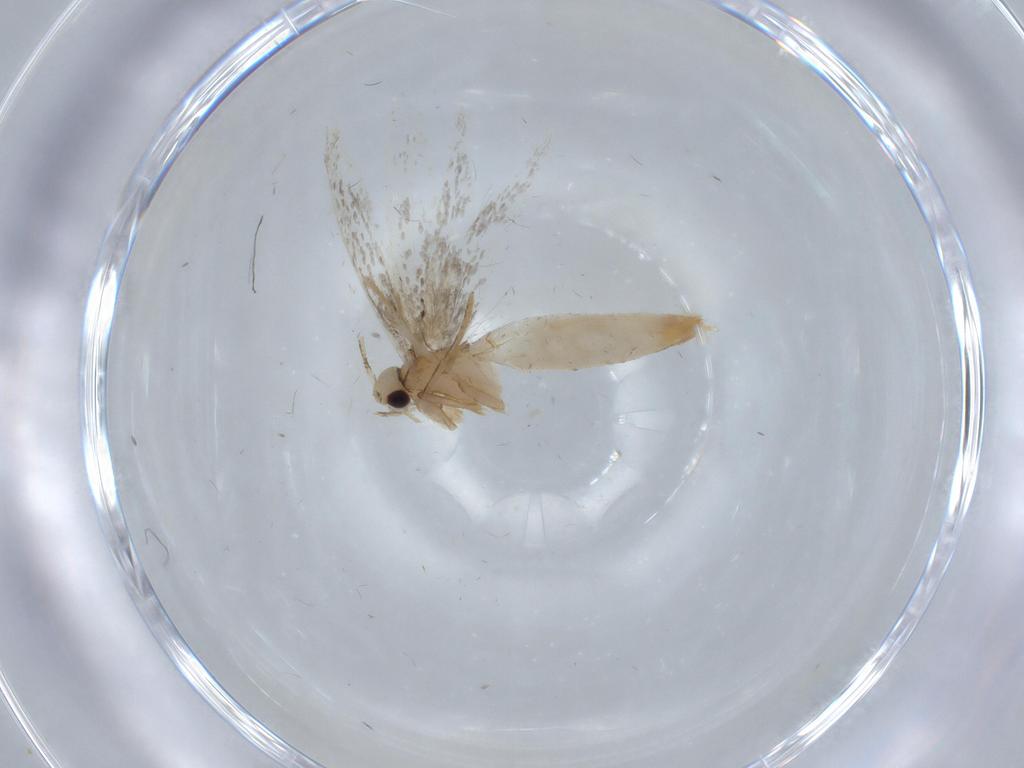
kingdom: Animalia
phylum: Arthropoda
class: Insecta
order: Lepidoptera
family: Tineidae
